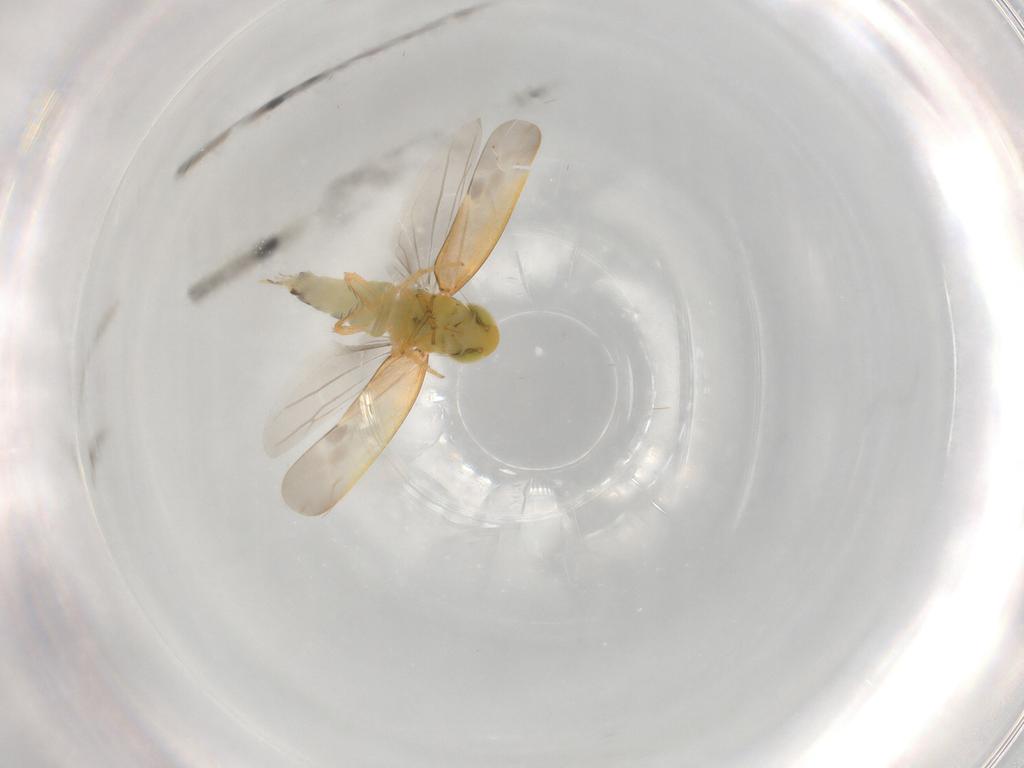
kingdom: Animalia
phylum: Arthropoda
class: Insecta
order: Hemiptera
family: Cicadellidae
